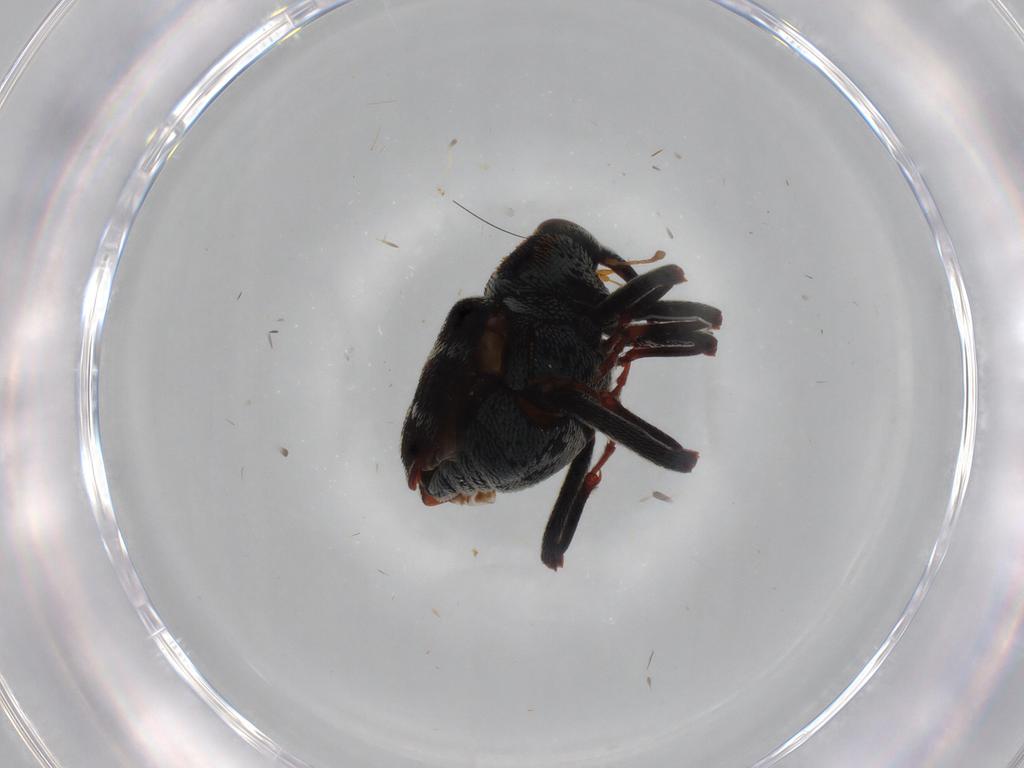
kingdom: Animalia
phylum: Arthropoda
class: Insecta
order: Coleoptera
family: Curculionidae
